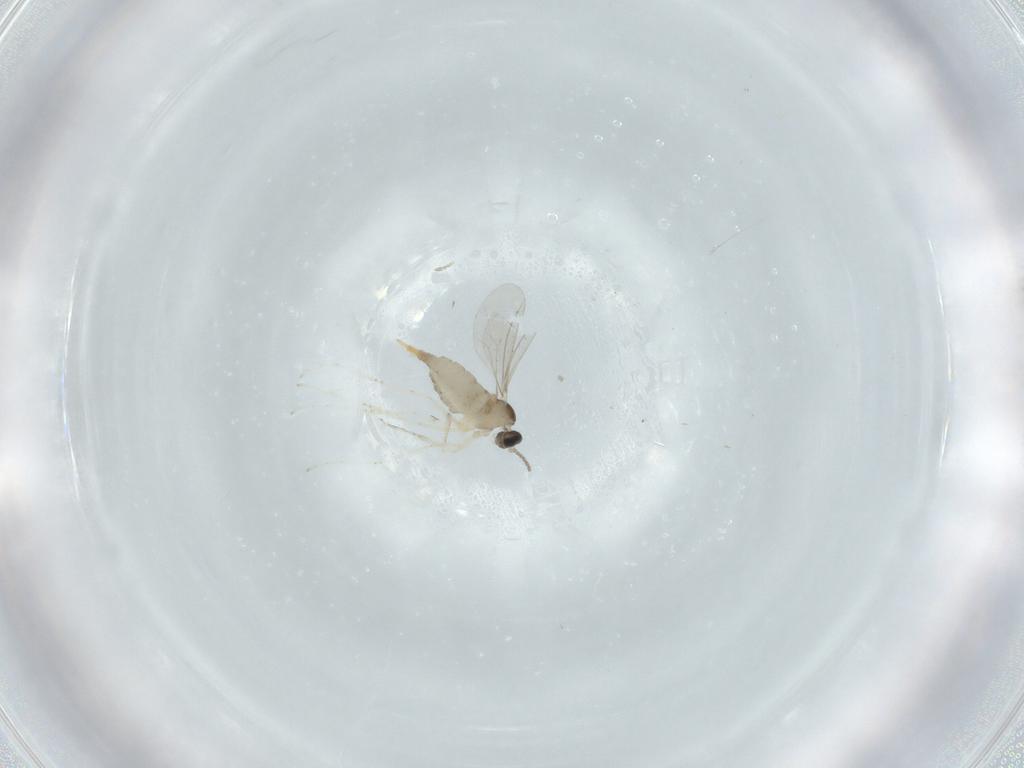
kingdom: Animalia
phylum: Arthropoda
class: Insecta
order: Diptera
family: Cecidomyiidae
